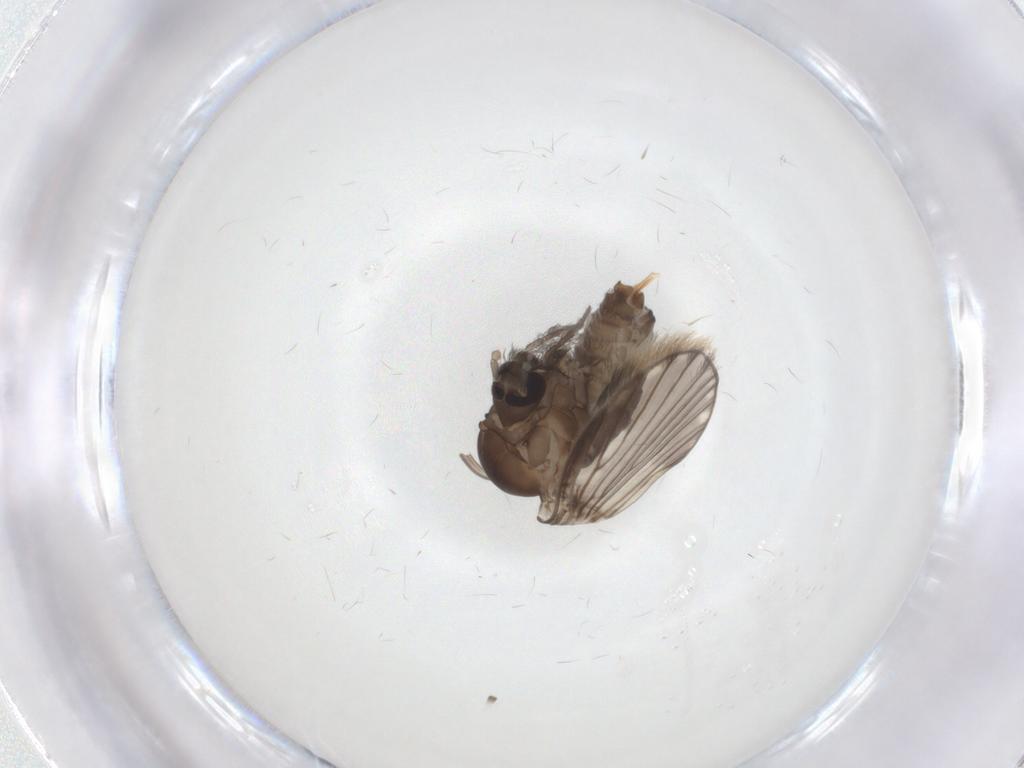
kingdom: Animalia
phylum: Arthropoda
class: Insecta
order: Diptera
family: Psychodidae
